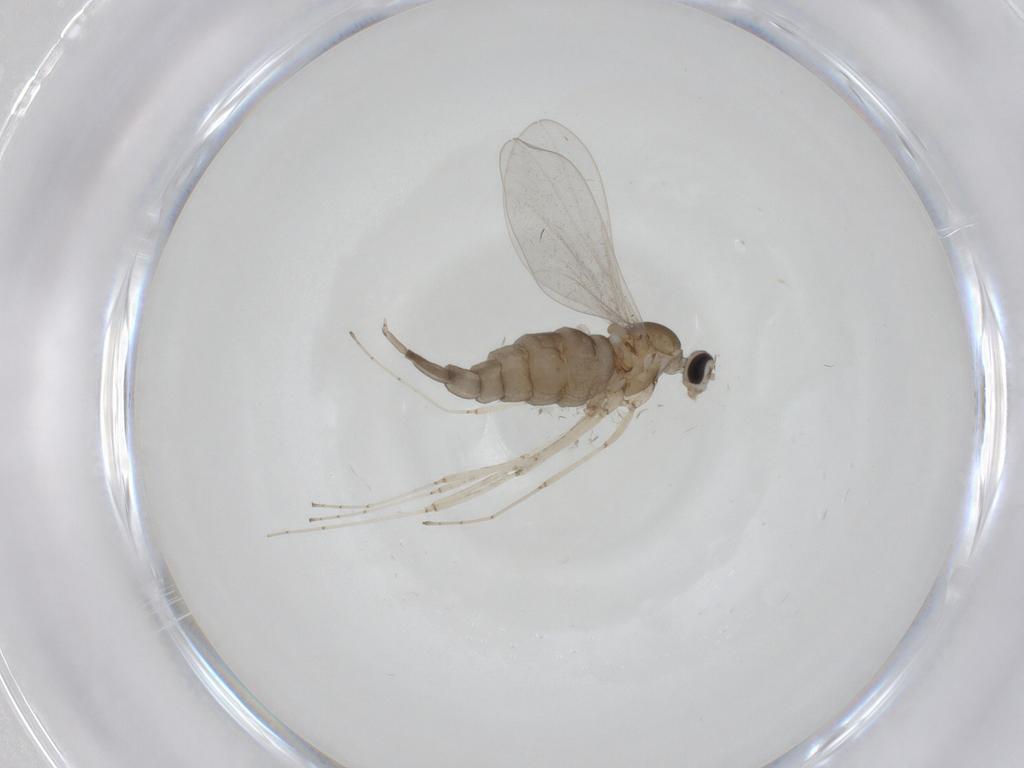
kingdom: Animalia
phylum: Arthropoda
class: Insecta
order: Diptera
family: Cecidomyiidae
